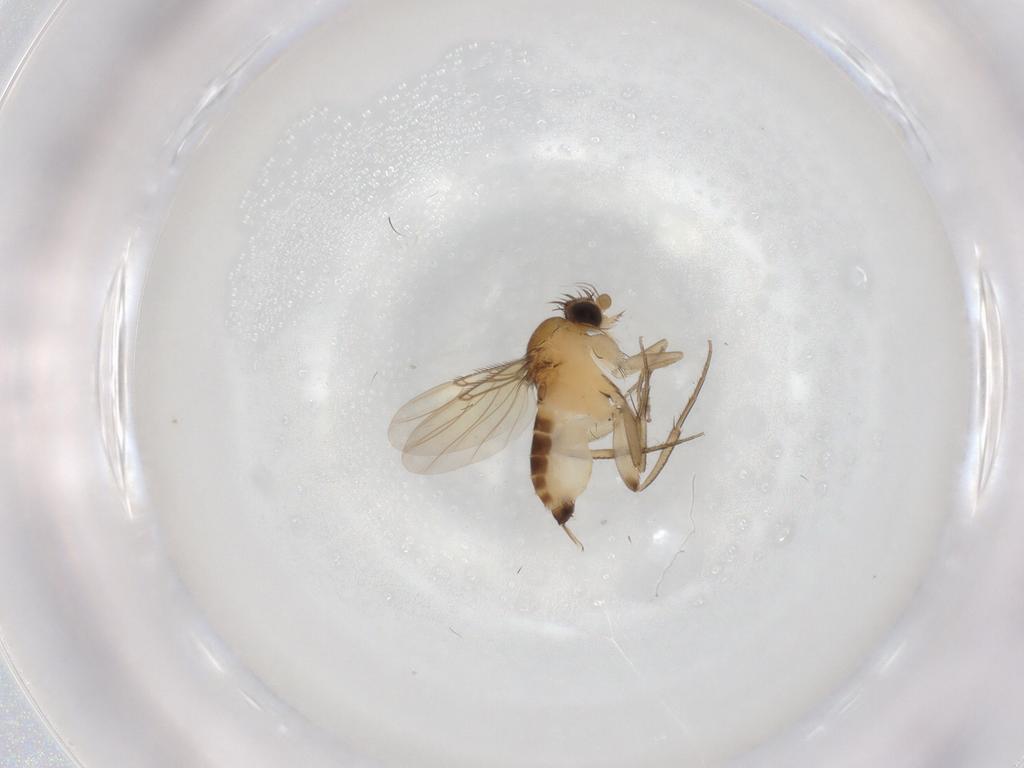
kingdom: Animalia
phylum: Arthropoda
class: Insecta
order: Diptera
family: Phoridae
